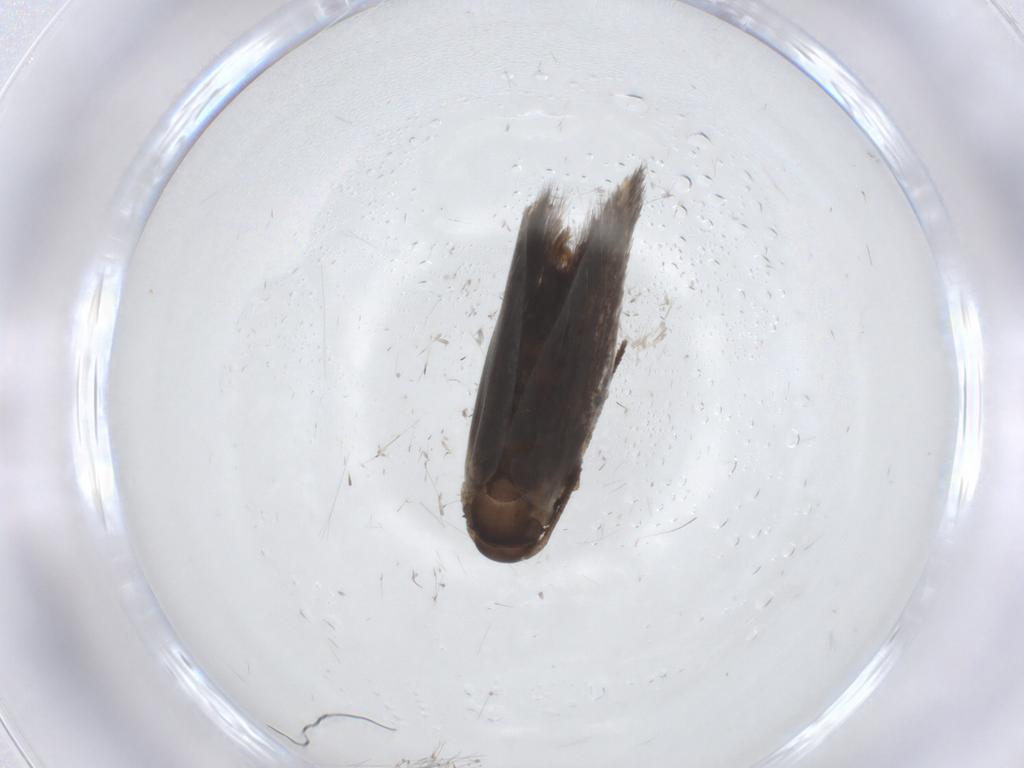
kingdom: Animalia
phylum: Arthropoda
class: Insecta
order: Lepidoptera
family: Elachistidae
